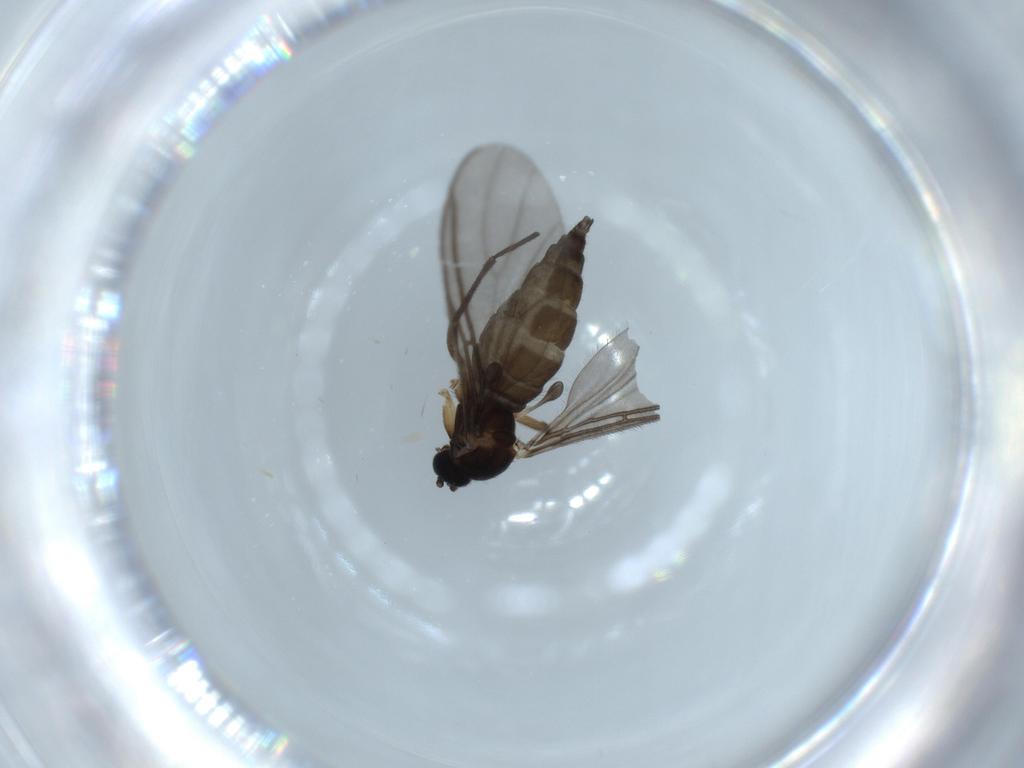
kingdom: Animalia
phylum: Arthropoda
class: Insecta
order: Diptera
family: Sciaridae
